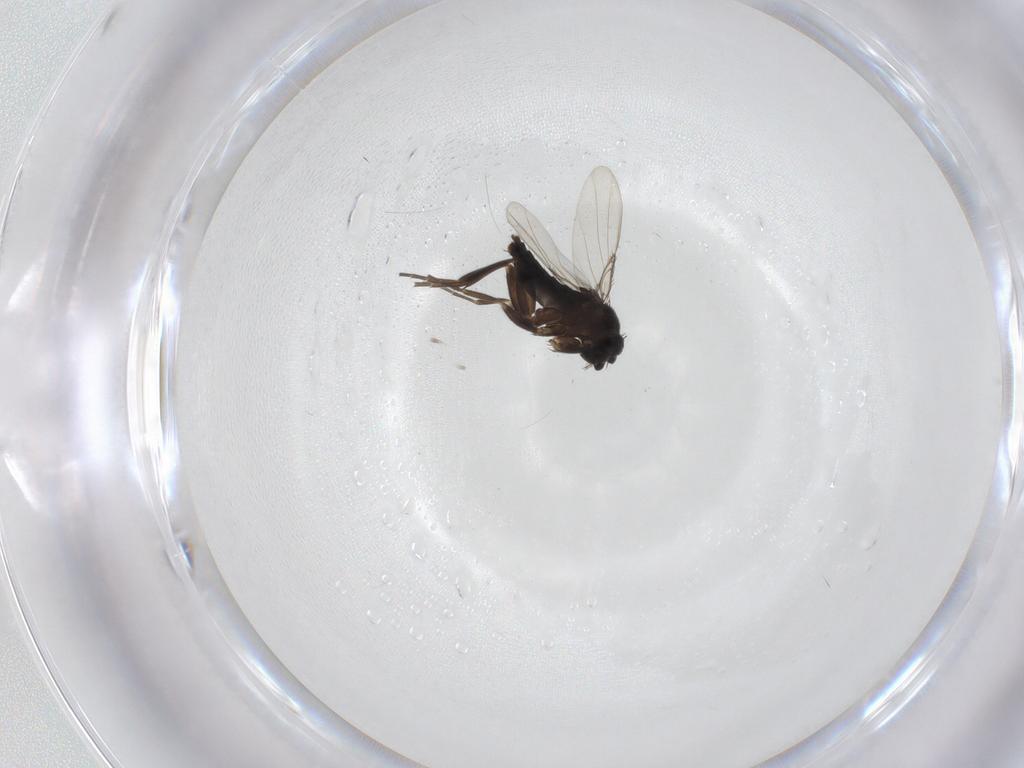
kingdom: Animalia
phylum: Arthropoda
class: Insecta
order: Diptera
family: Phoridae
